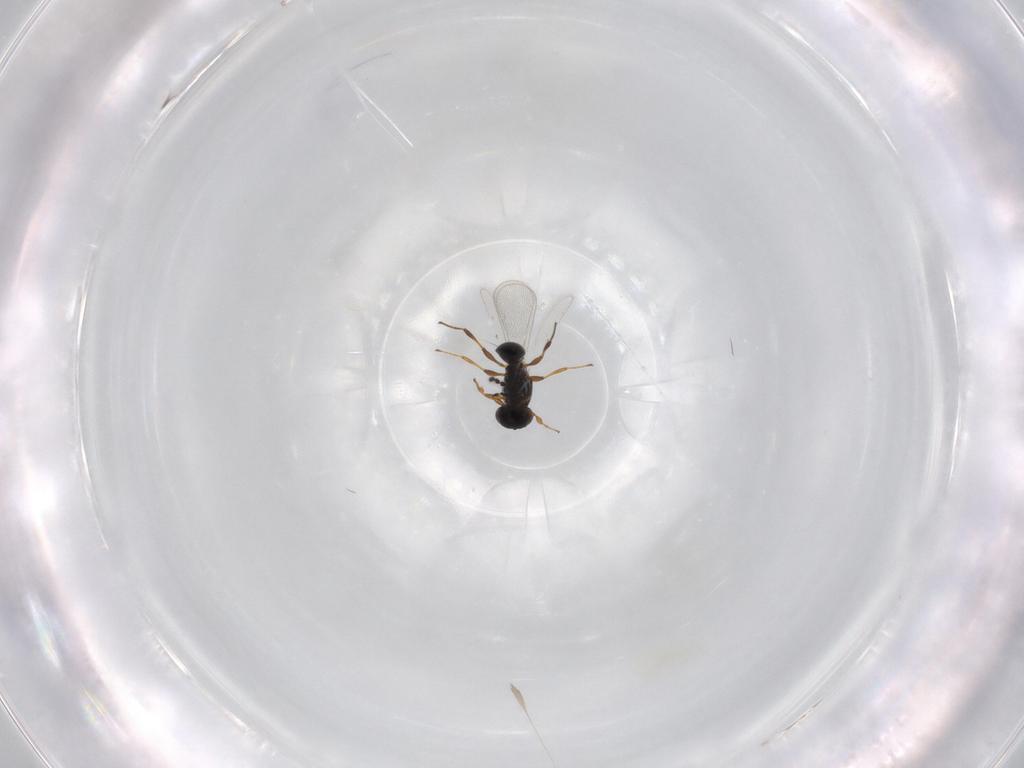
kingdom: Animalia
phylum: Arthropoda
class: Insecta
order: Hymenoptera
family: Platygastridae
